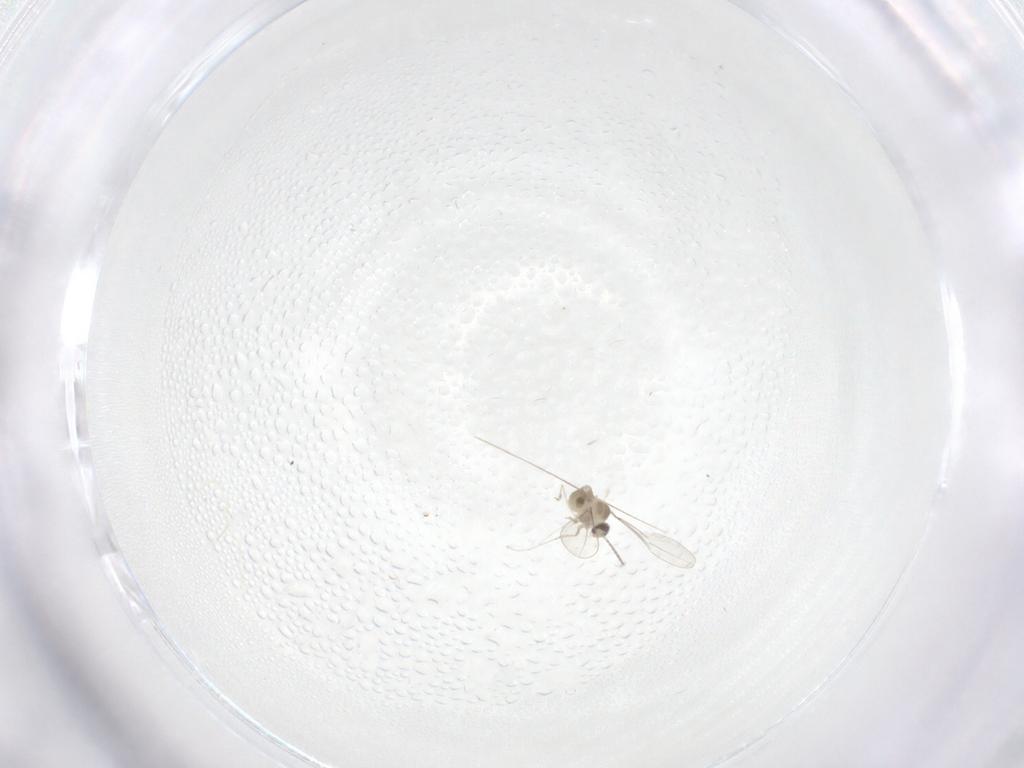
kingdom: Animalia
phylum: Arthropoda
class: Insecta
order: Diptera
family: Cecidomyiidae
